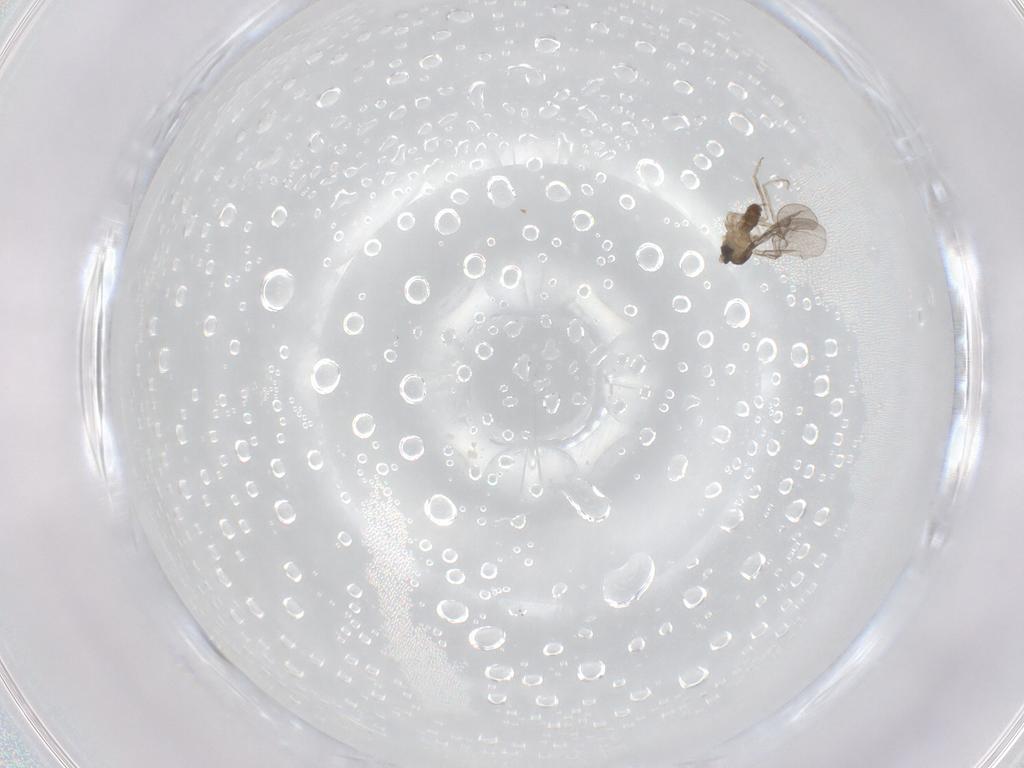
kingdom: Animalia
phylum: Arthropoda
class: Insecta
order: Diptera
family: Cecidomyiidae
